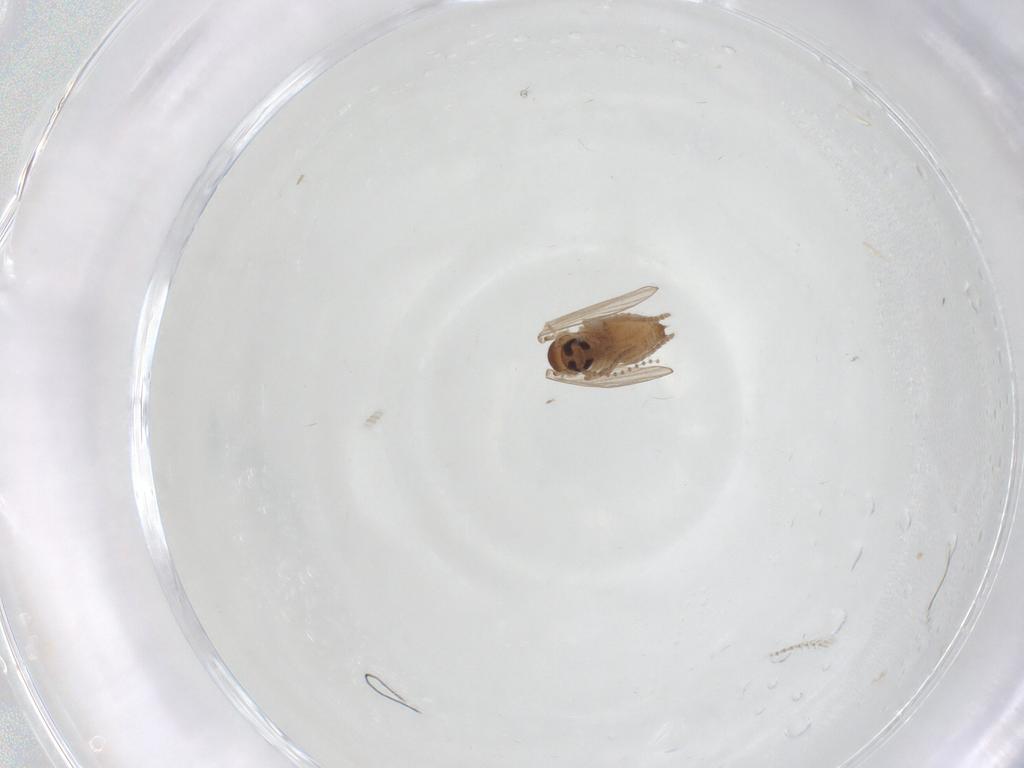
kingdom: Animalia
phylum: Arthropoda
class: Insecta
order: Diptera
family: Psychodidae
